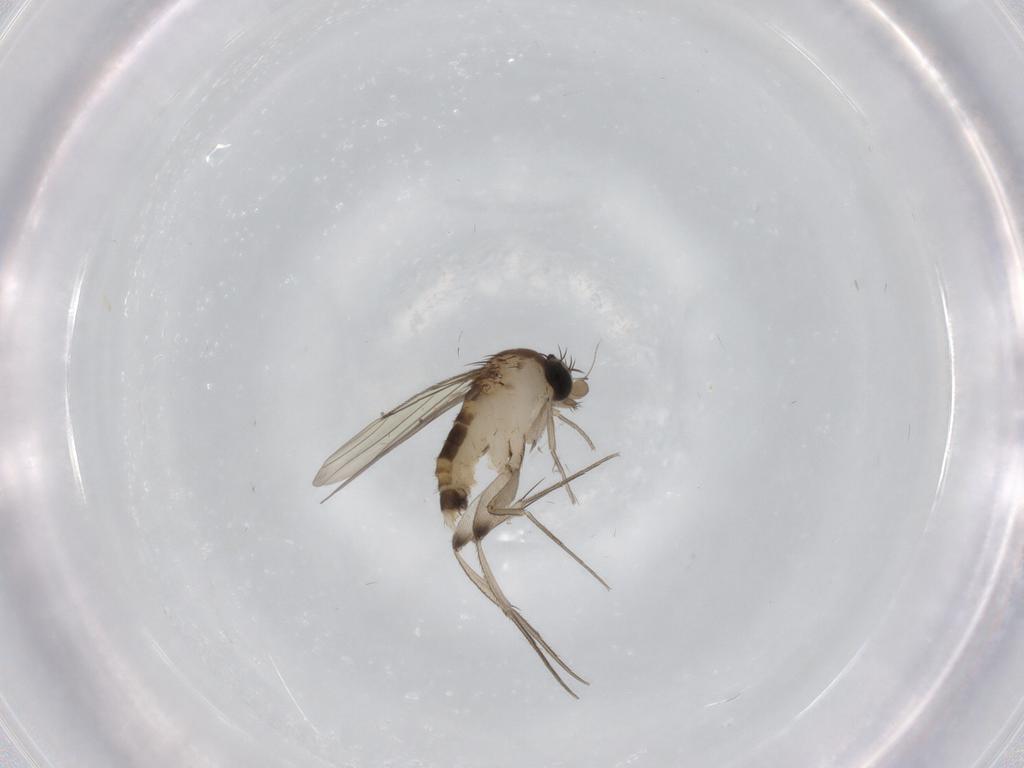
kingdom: Animalia
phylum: Arthropoda
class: Insecta
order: Diptera
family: Phoridae
